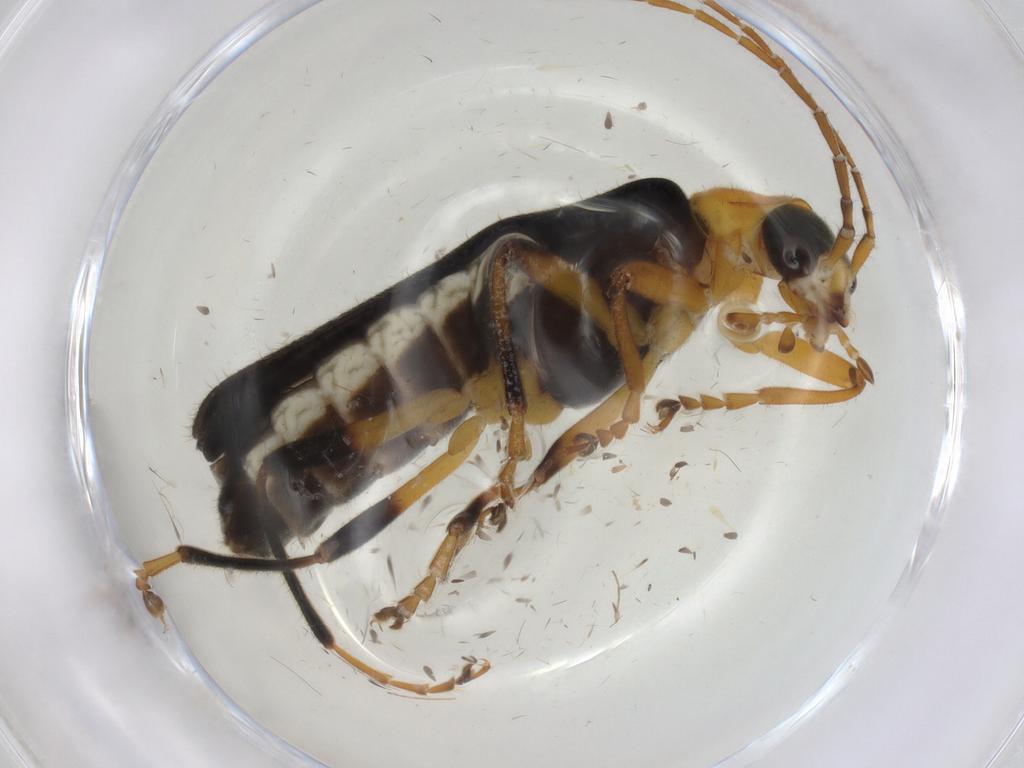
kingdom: Animalia
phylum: Arthropoda
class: Insecta
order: Coleoptera
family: Cantharidae
